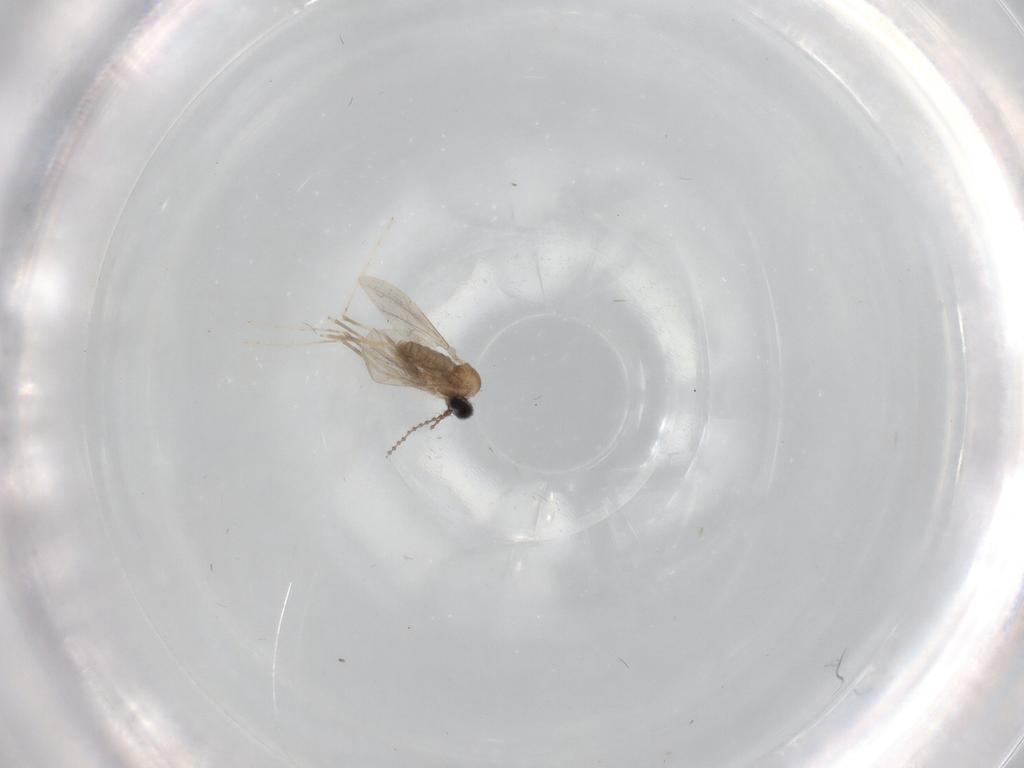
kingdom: Animalia
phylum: Arthropoda
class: Insecta
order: Diptera
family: Cecidomyiidae
